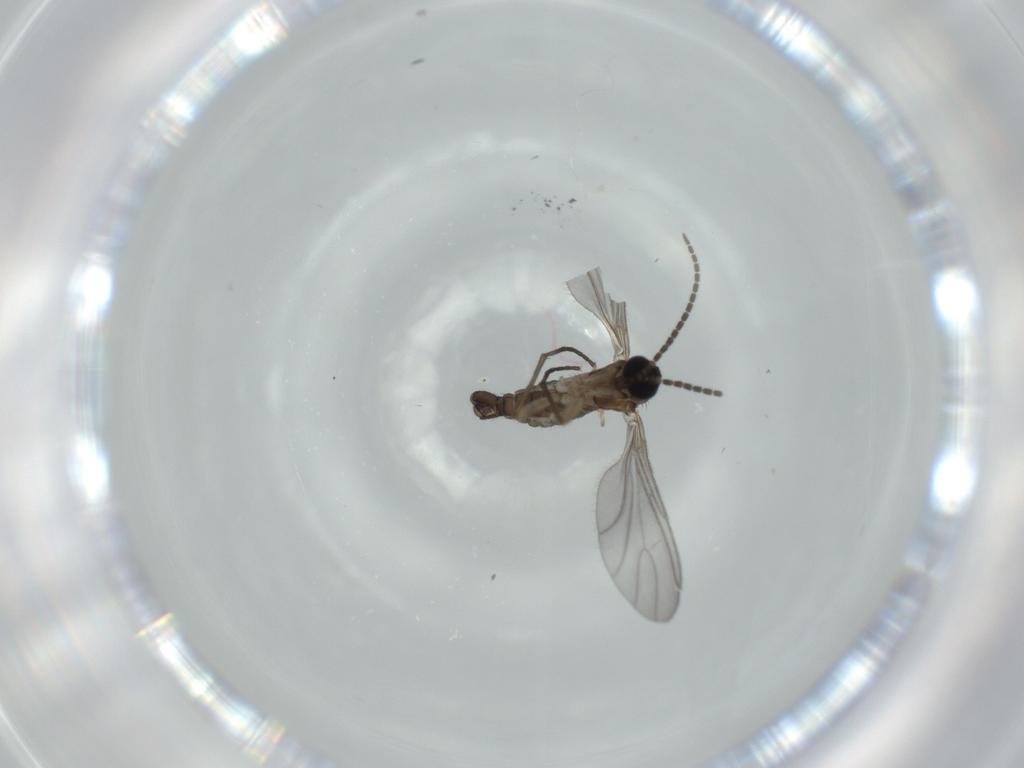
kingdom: Animalia
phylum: Arthropoda
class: Insecta
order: Diptera
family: Sciaridae
